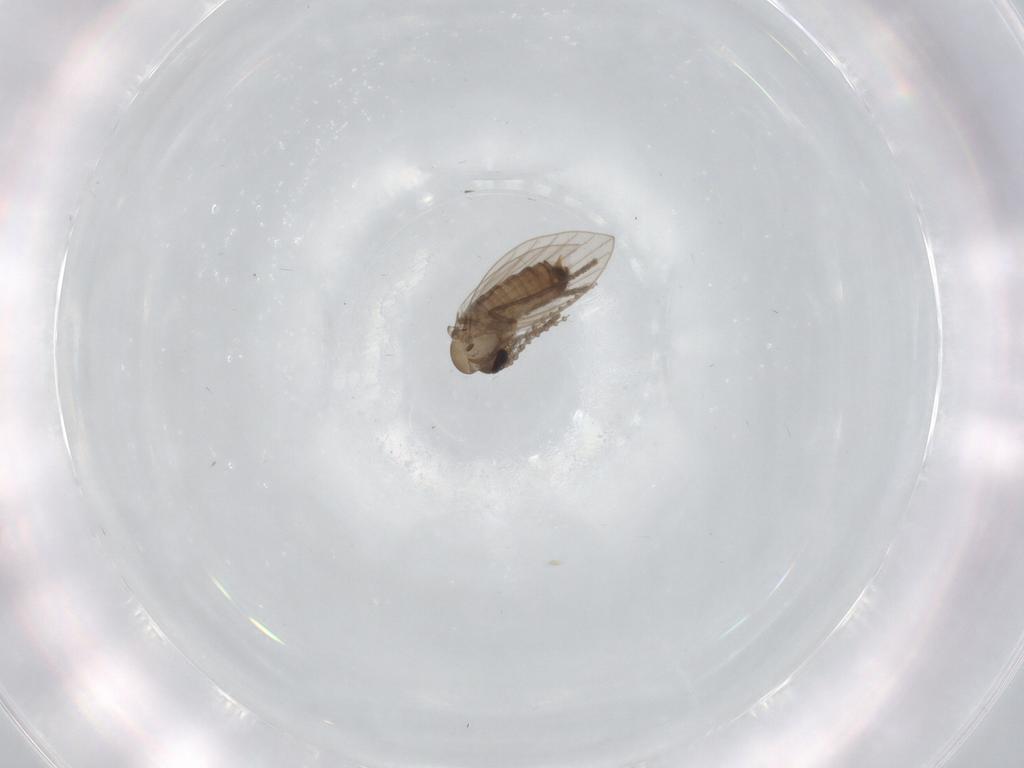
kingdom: Animalia
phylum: Arthropoda
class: Insecta
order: Diptera
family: Psychodidae
